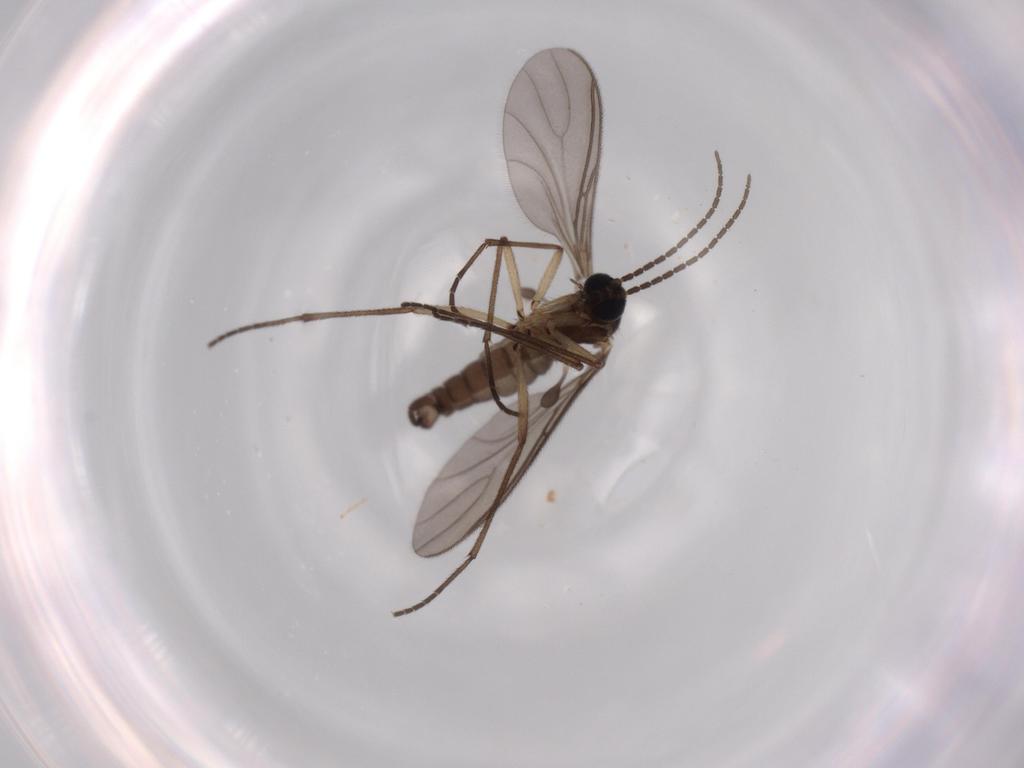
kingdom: Animalia
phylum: Arthropoda
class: Insecta
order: Diptera
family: Sciaridae
